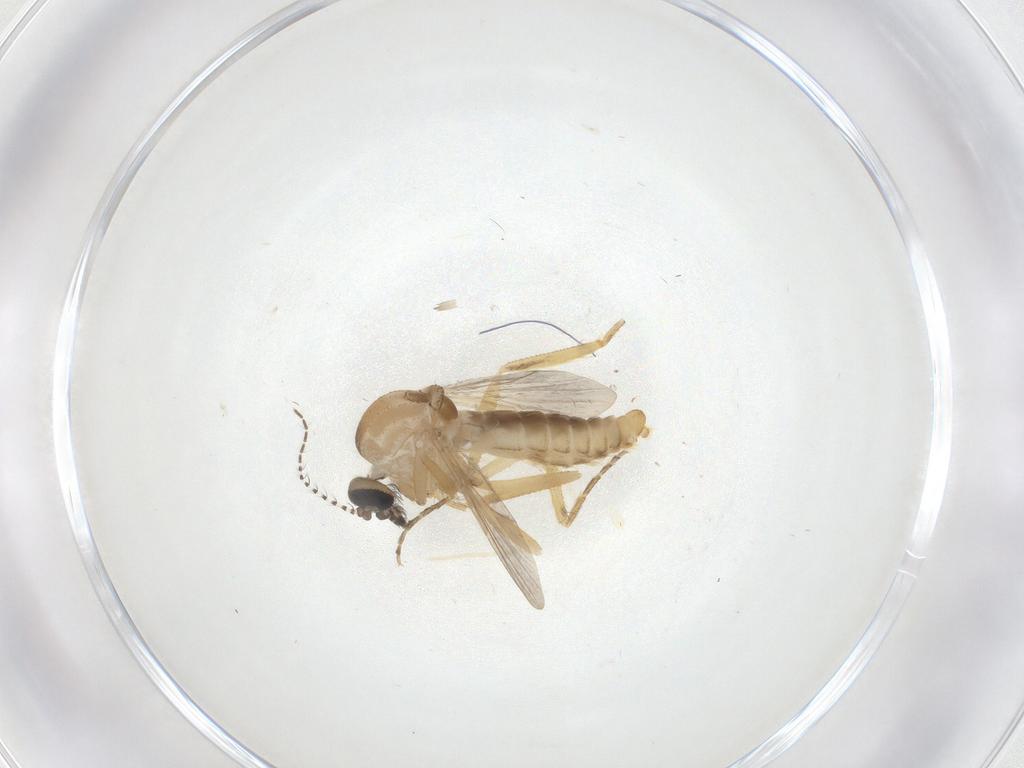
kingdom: Animalia
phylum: Arthropoda
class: Insecta
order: Diptera
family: Ceratopogonidae
